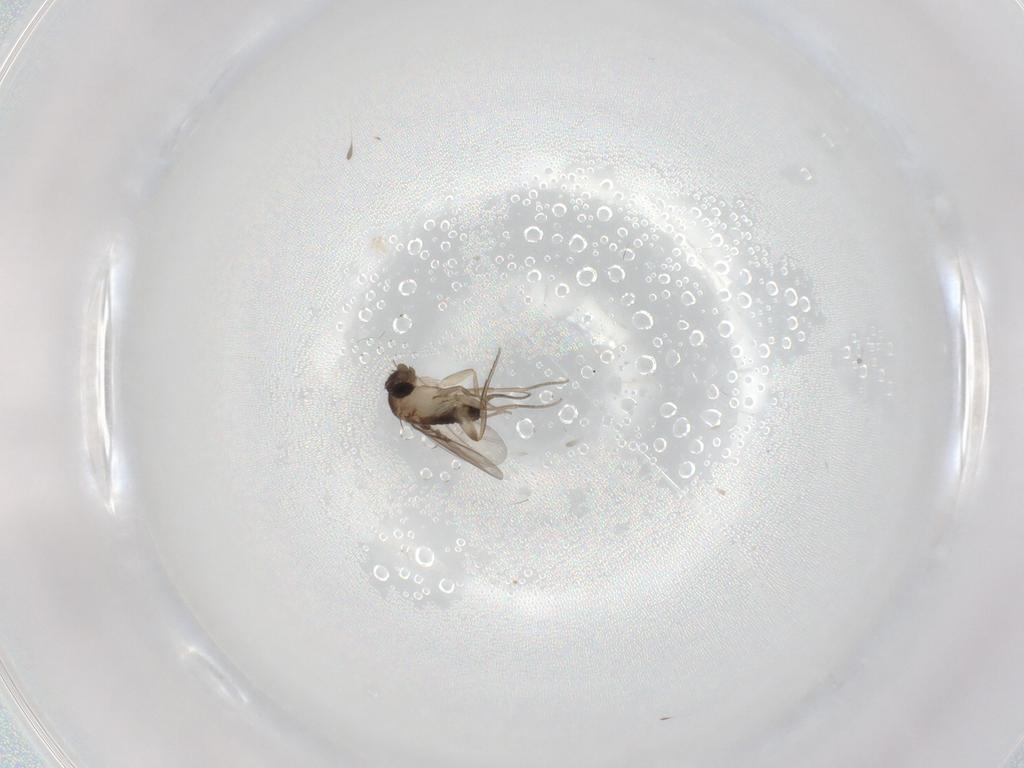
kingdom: Animalia
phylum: Arthropoda
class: Insecta
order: Diptera
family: Phoridae
